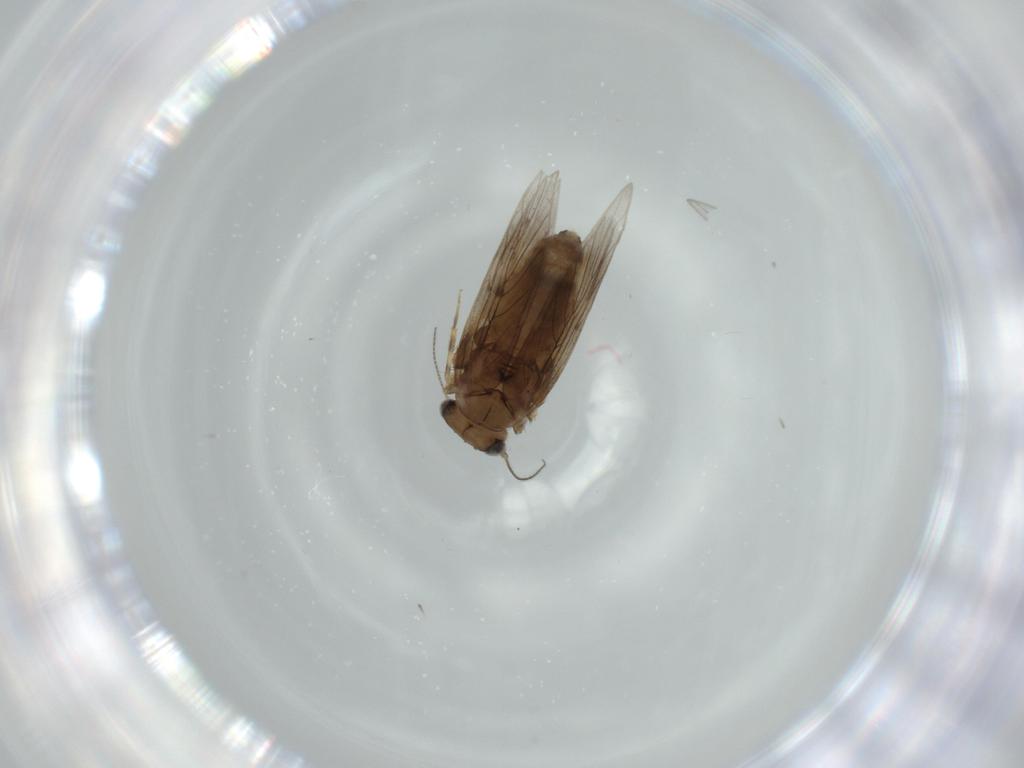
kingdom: Animalia
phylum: Arthropoda
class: Insecta
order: Psocodea
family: Lepidopsocidae
